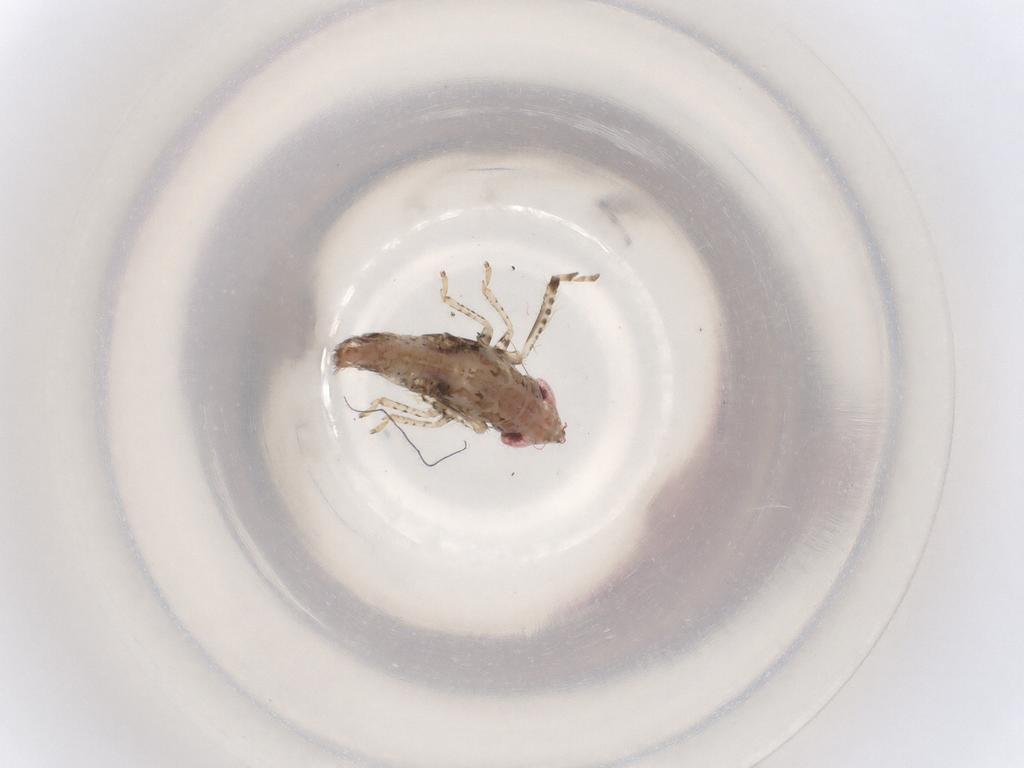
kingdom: Animalia
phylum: Arthropoda
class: Insecta
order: Hemiptera
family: Cicadellidae
